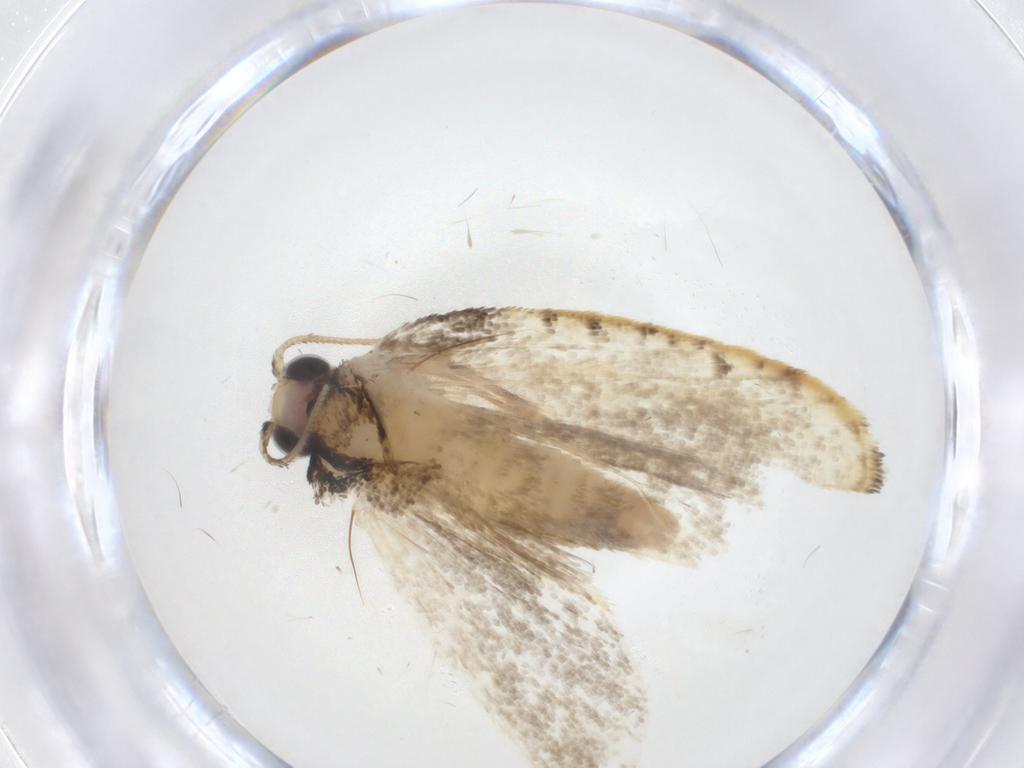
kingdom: Animalia
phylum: Arthropoda
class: Insecta
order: Lepidoptera
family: Psychidae
